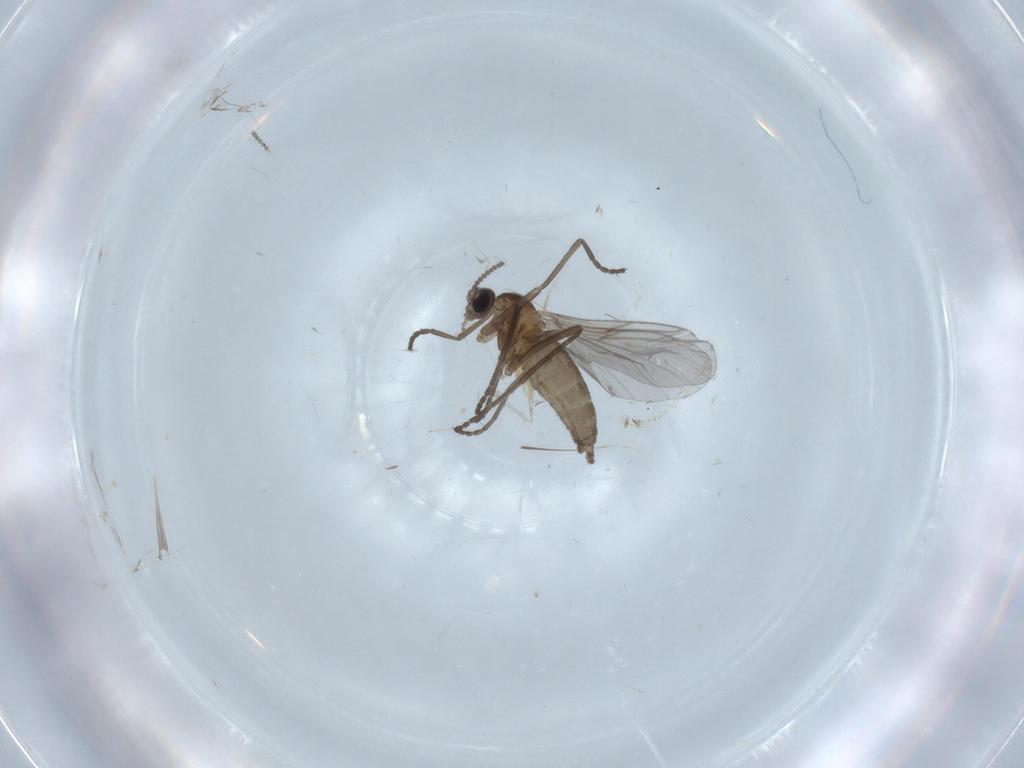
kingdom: Animalia
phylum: Arthropoda
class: Insecta
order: Diptera
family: Cecidomyiidae
